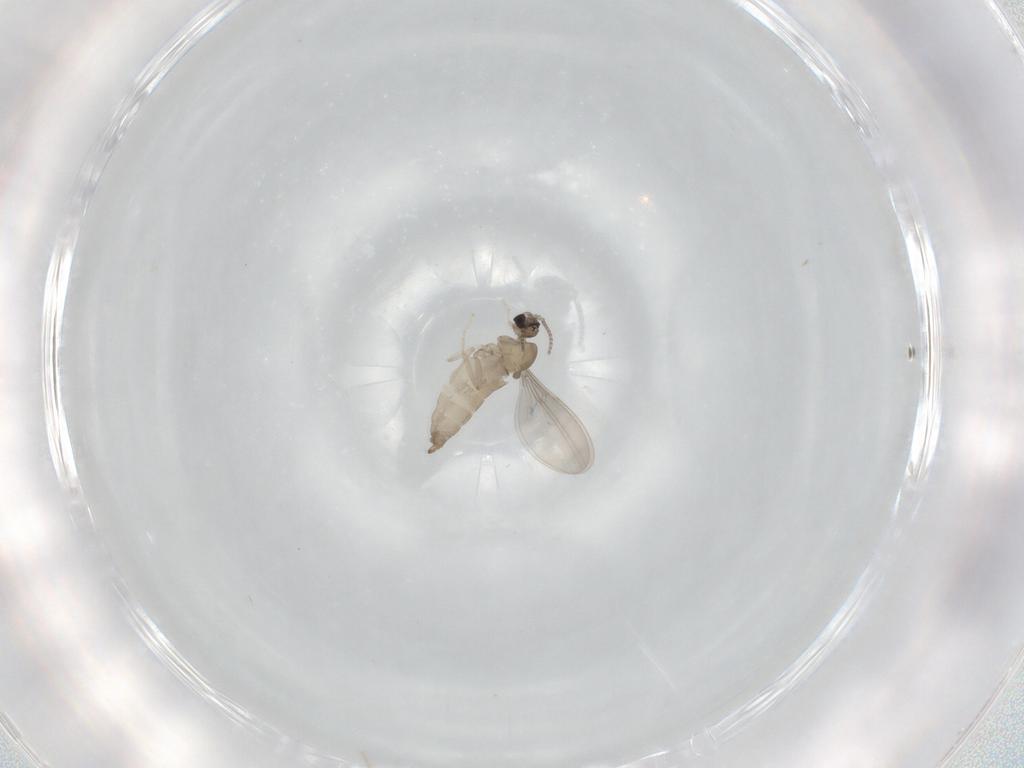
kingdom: Animalia
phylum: Arthropoda
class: Insecta
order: Diptera
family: Cecidomyiidae
